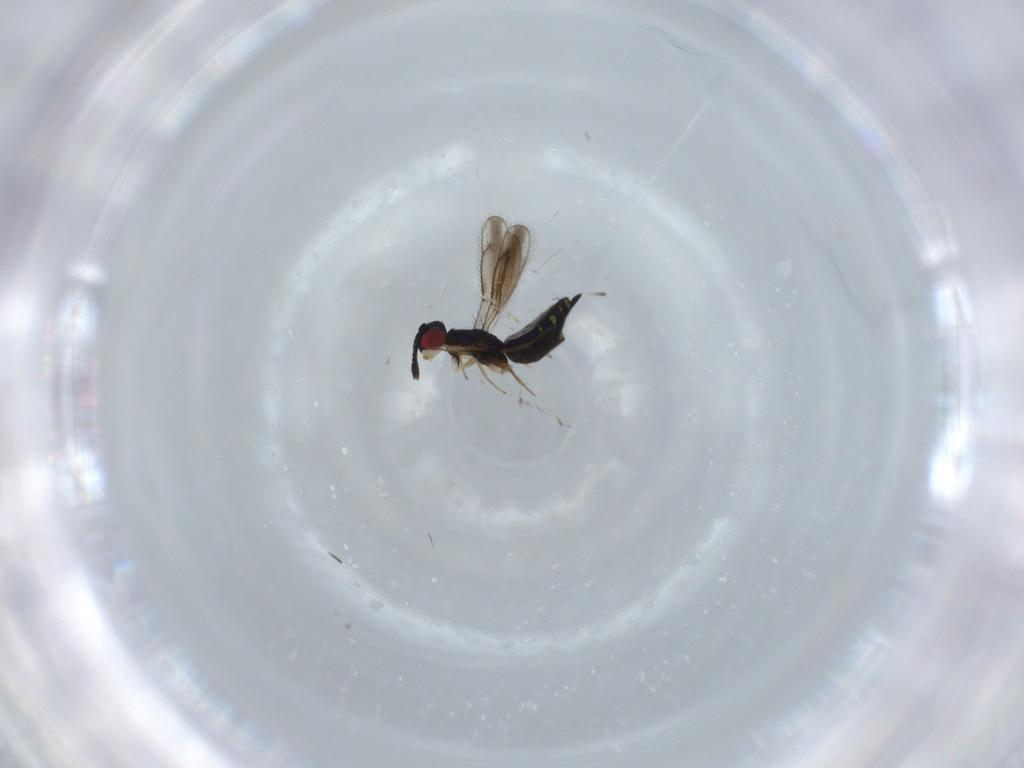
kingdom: Animalia
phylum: Arthropoda
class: Insecta
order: Hymenoptera
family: Pteromalidae
